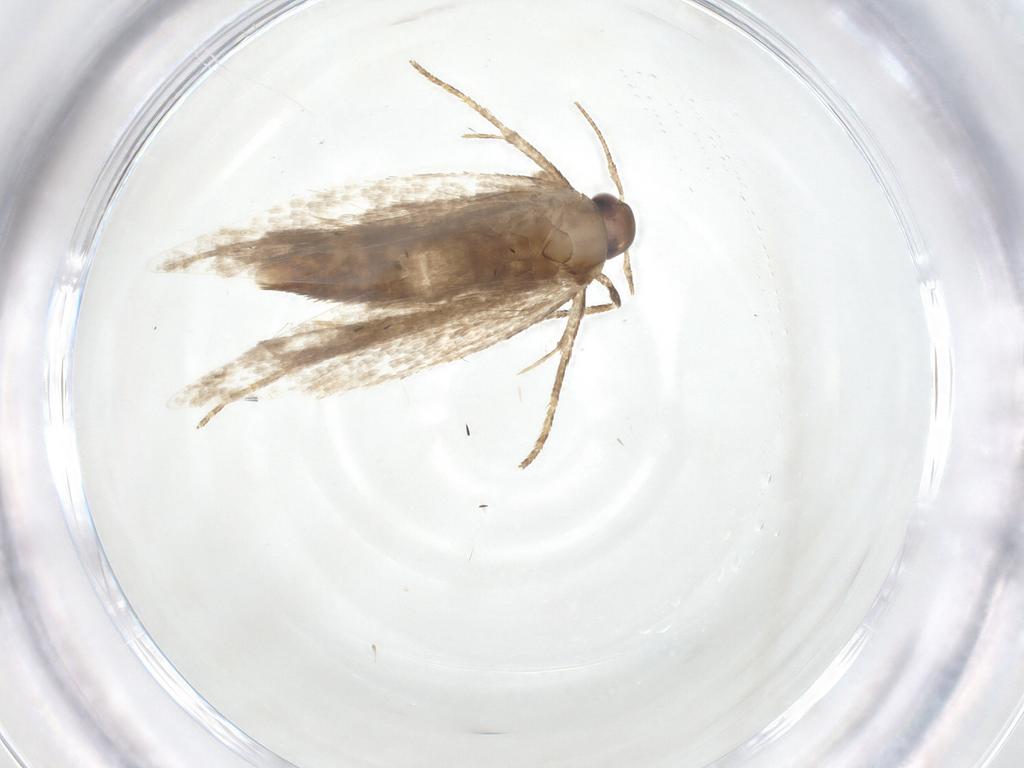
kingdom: Animalia
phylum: Arthropoda
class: Insecta
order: Lepidoptera
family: Gelechiidae
